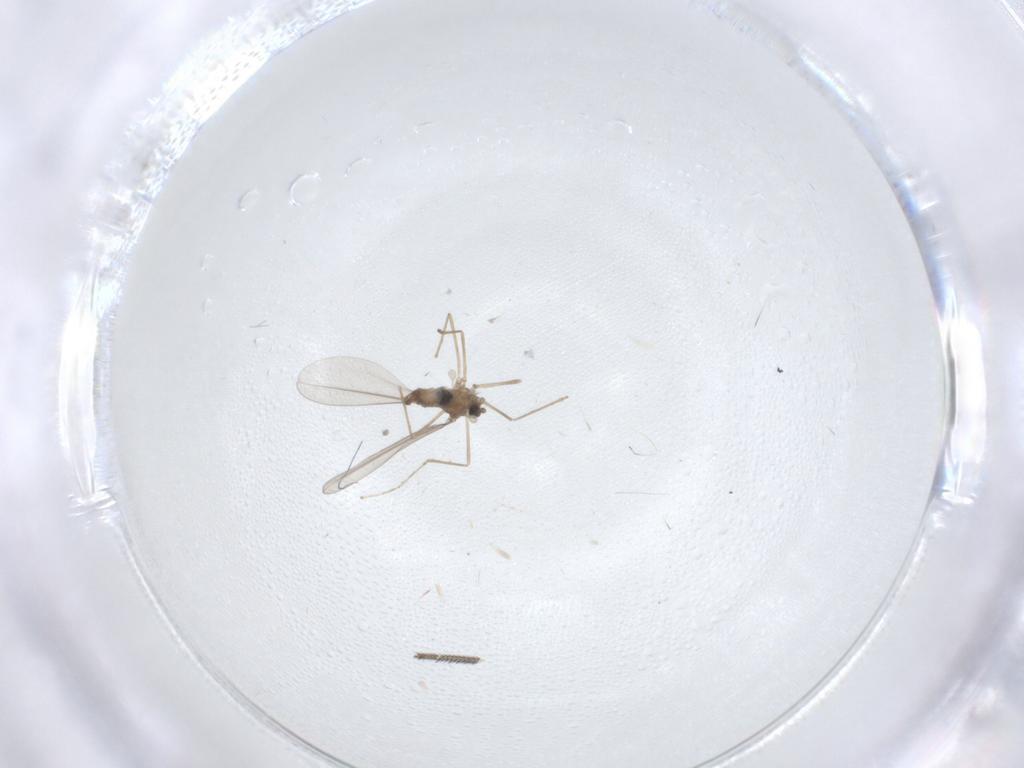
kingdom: Animalia
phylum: Arthropoda
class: Insecta
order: Diptera
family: Cecidomyiidae
